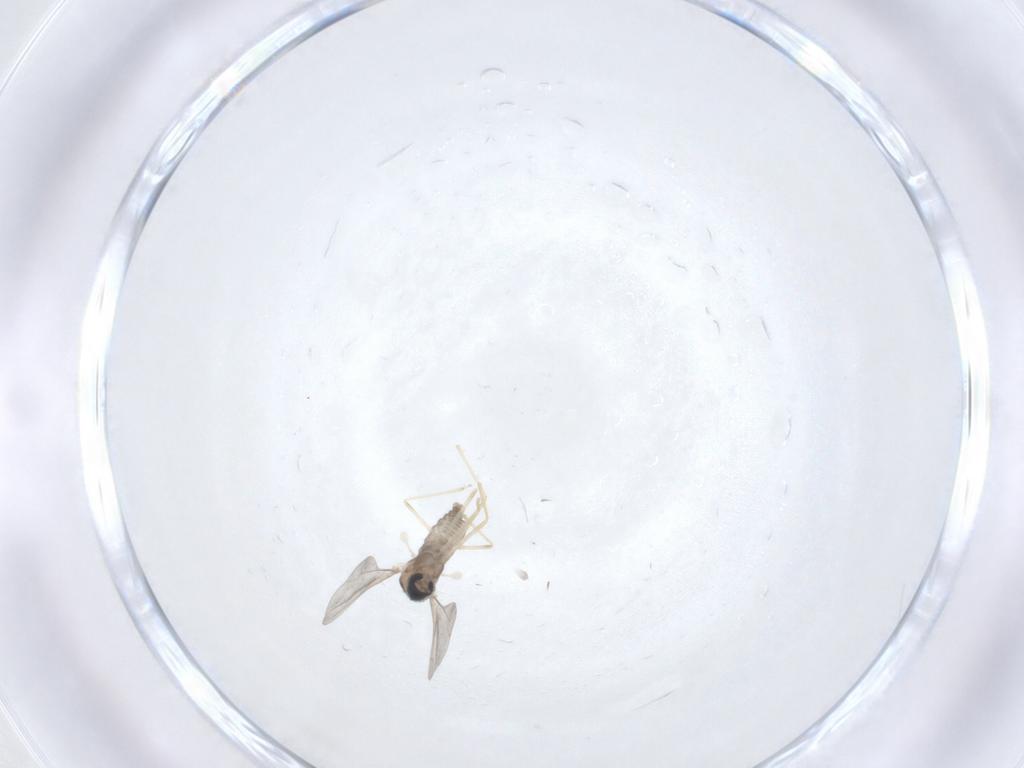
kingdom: Animalia
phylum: Arthropoda
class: Insecta
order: Diptera
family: Cecidomyiidae
